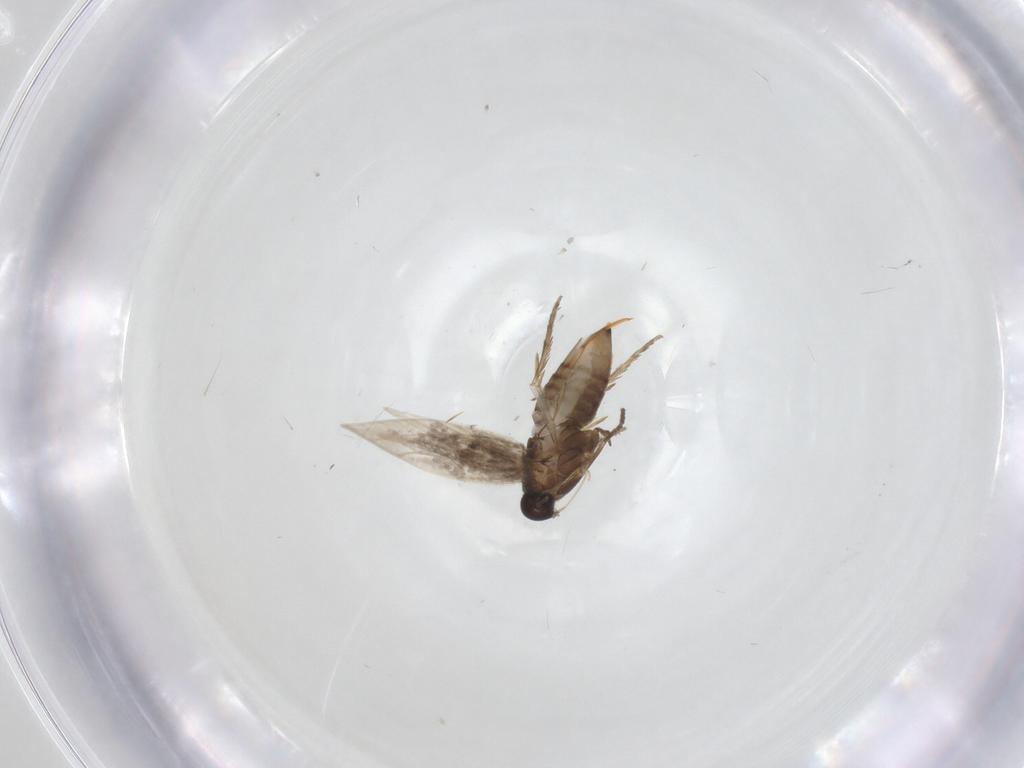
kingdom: Animalia
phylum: Arthropoda
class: Insecta
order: Lepidoptera
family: Heliozelidae
